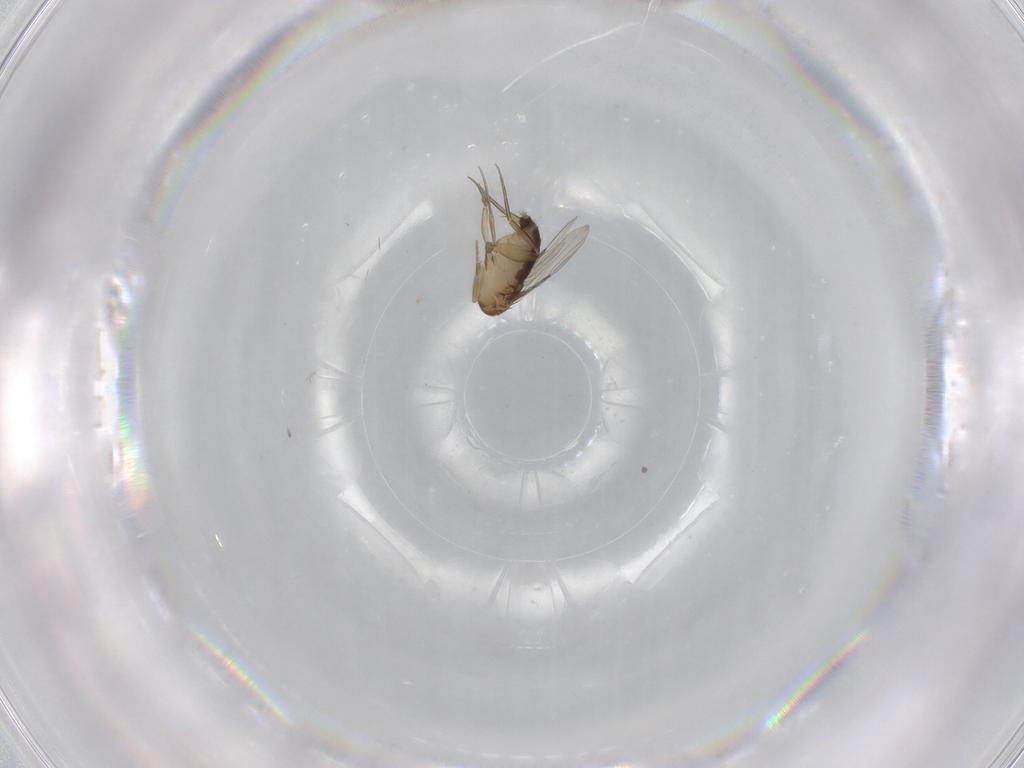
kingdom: Animalia
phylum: Arthropoda
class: Insecta
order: Diptera
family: Phoridae
